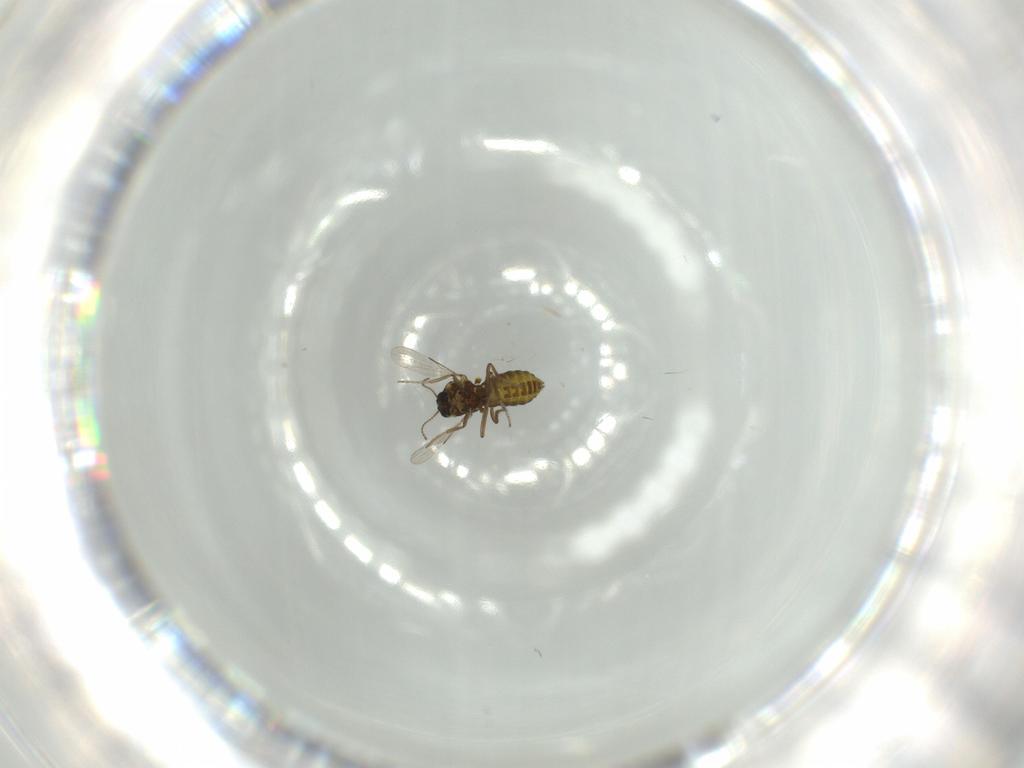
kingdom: Animalia
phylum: Arthropoda
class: Insecta
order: Diptera
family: Ceratopogonidae
